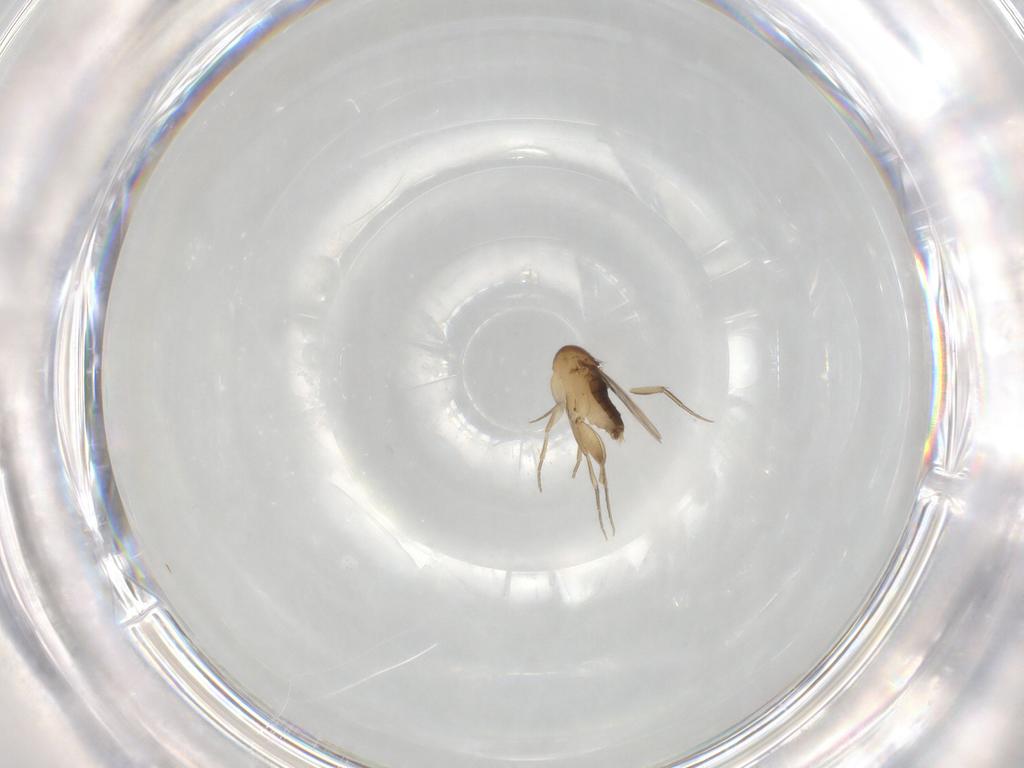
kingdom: Animalia
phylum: Arthropoda
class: Insecta
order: Diptera
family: Phoridae
